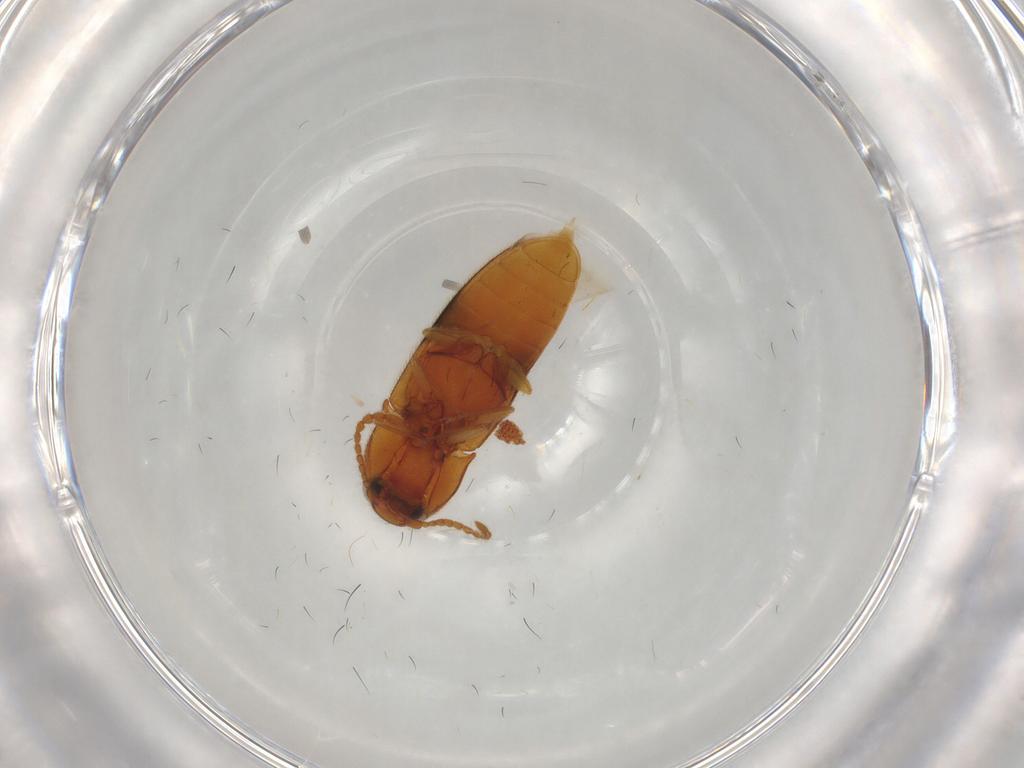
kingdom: Animalia
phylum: Arthropoda
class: Insecta
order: Coleoptera
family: Elateridae
